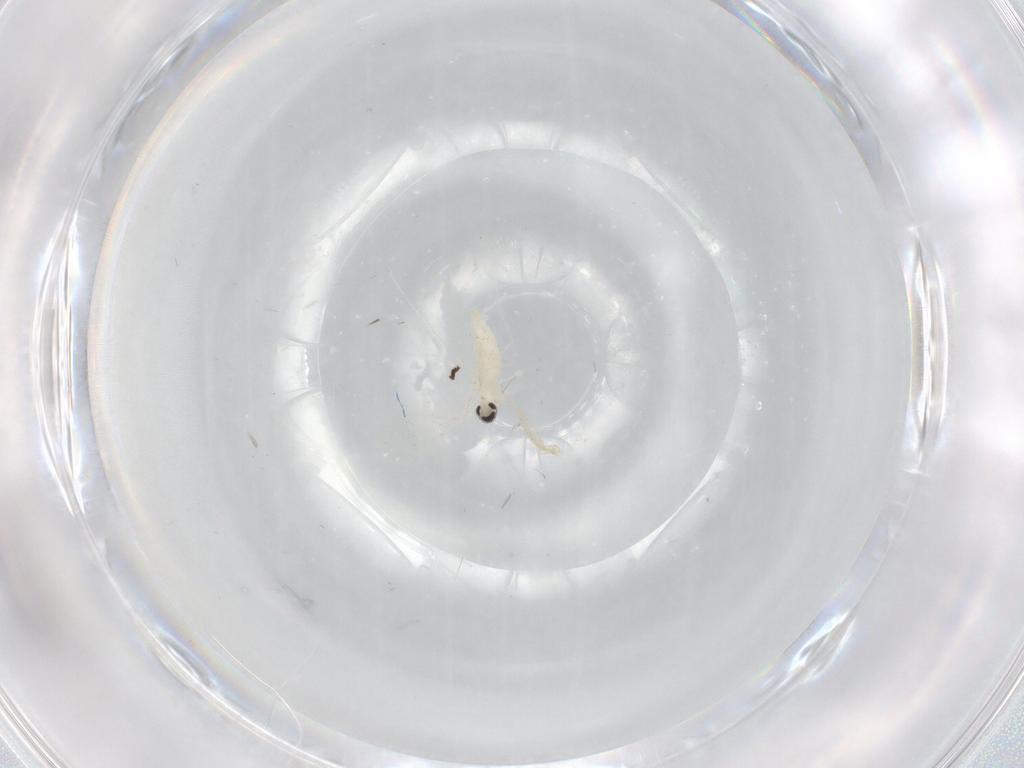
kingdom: Animalia
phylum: Arthropoda
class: Insecta
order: Diptera
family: Cecidomyiidae
